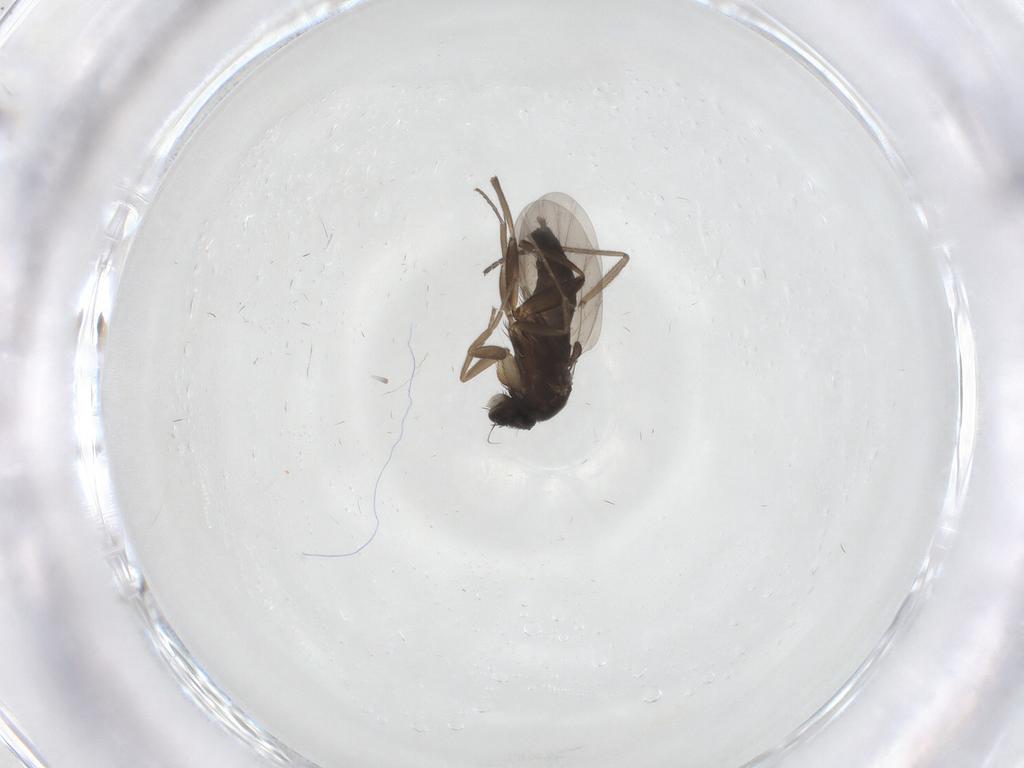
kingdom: Animalia
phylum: Arthropoda
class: Insecta
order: Diptera
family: Phoridae
